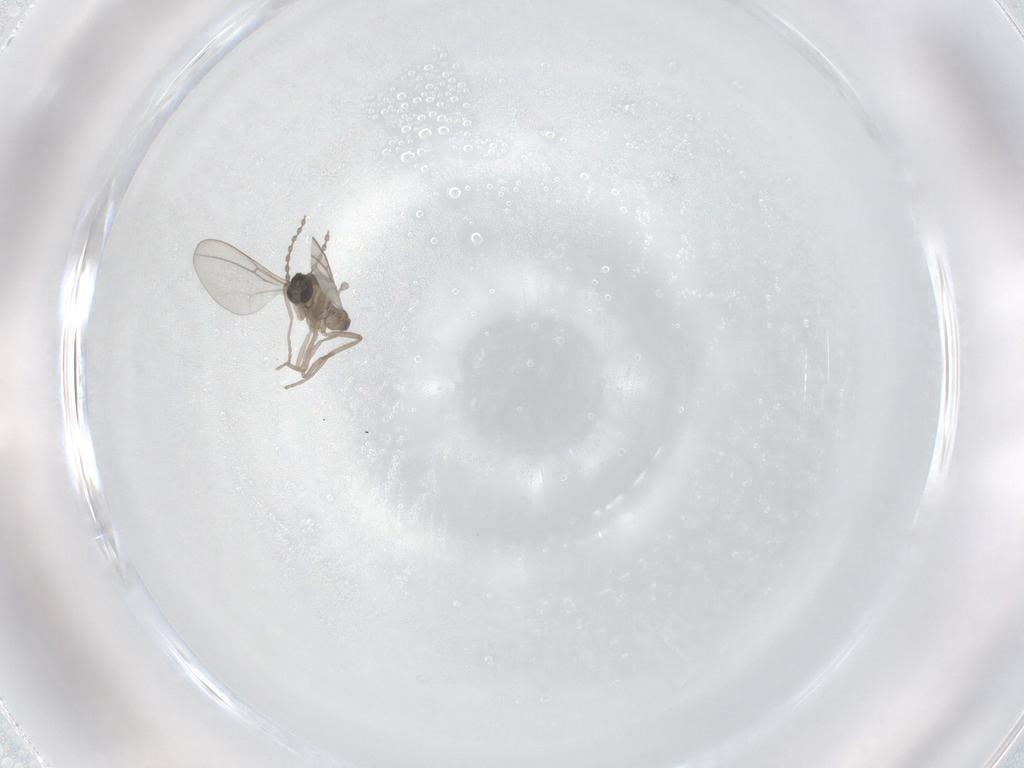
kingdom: Animalia
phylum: Arthropoda
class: Insecta
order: Diptera
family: Cecidomyiidae
